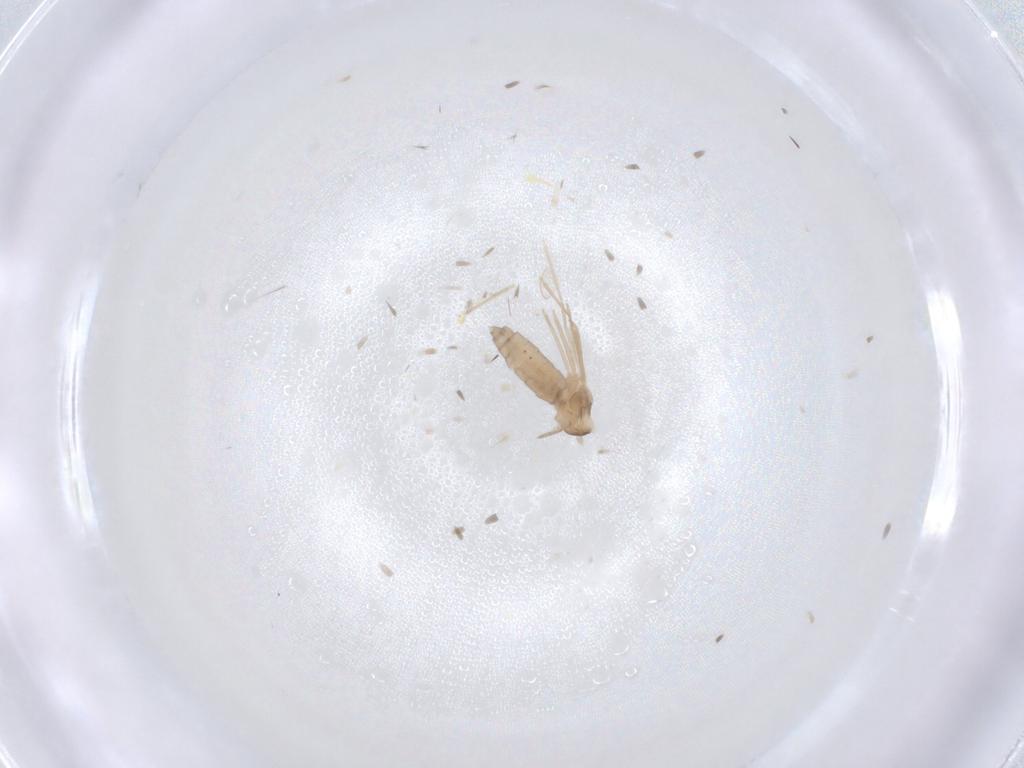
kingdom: Animalia
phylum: Arthropoda
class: Insecta
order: Diptera
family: Cecidomyiidae
